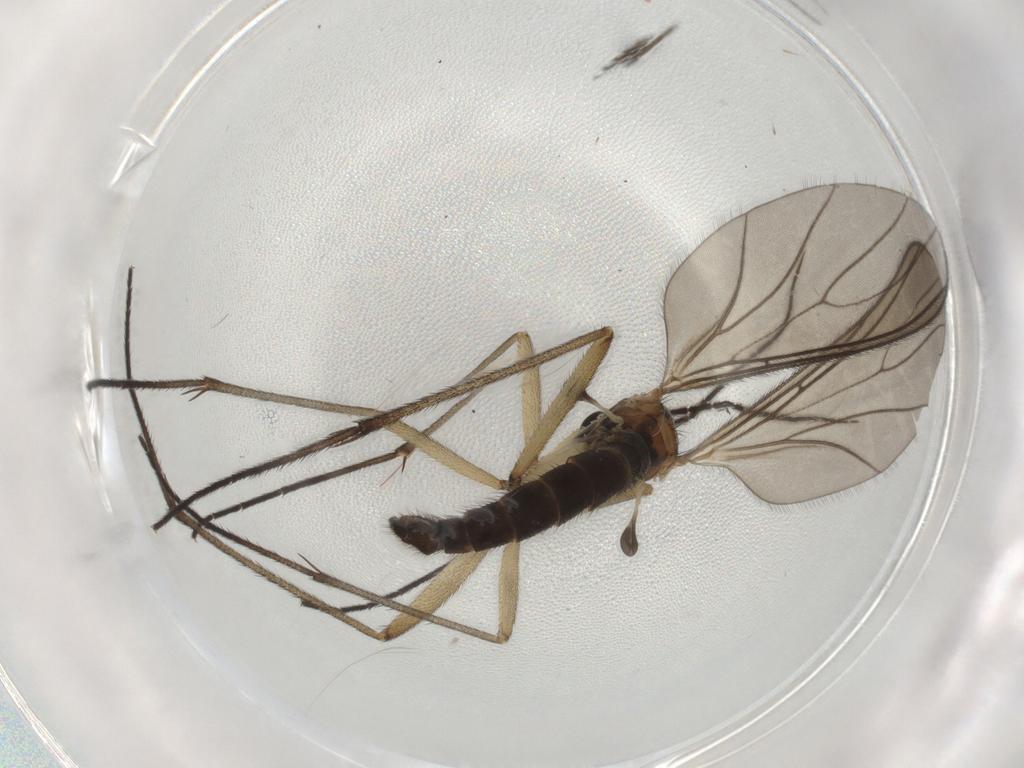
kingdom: Animalia
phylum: Arthropoda
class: Insecta
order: Diptera
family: Sciaridae
